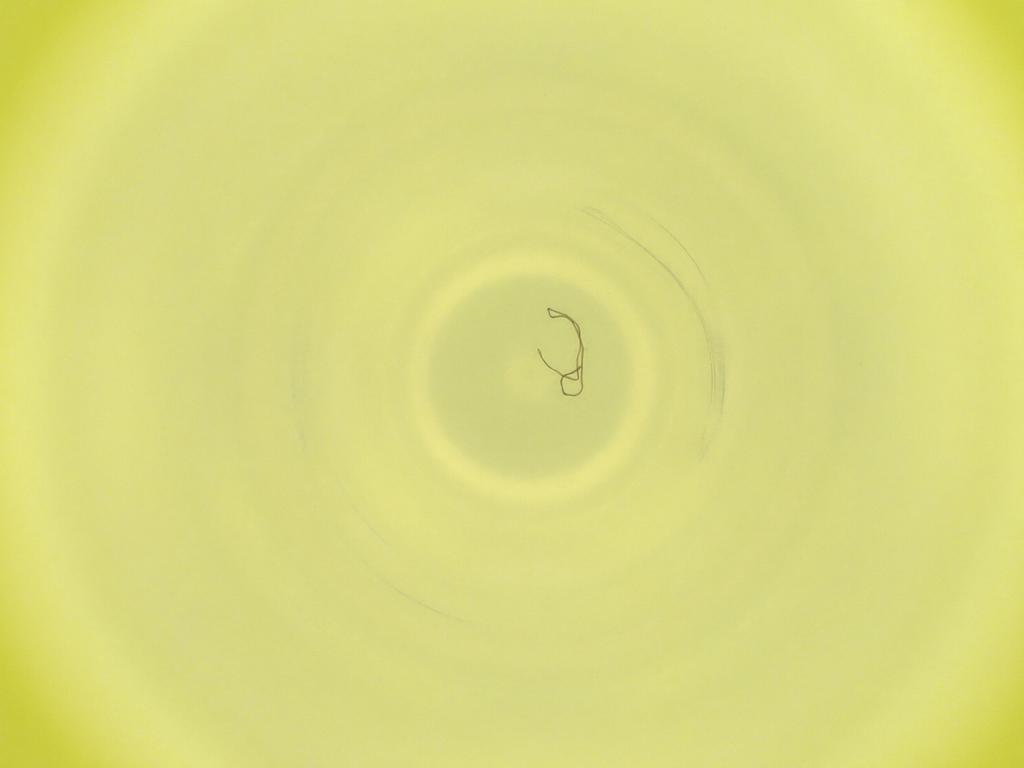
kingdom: Animalia
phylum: Arthropoda
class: Insecta
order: Diptera
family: Cecidomyiidae
